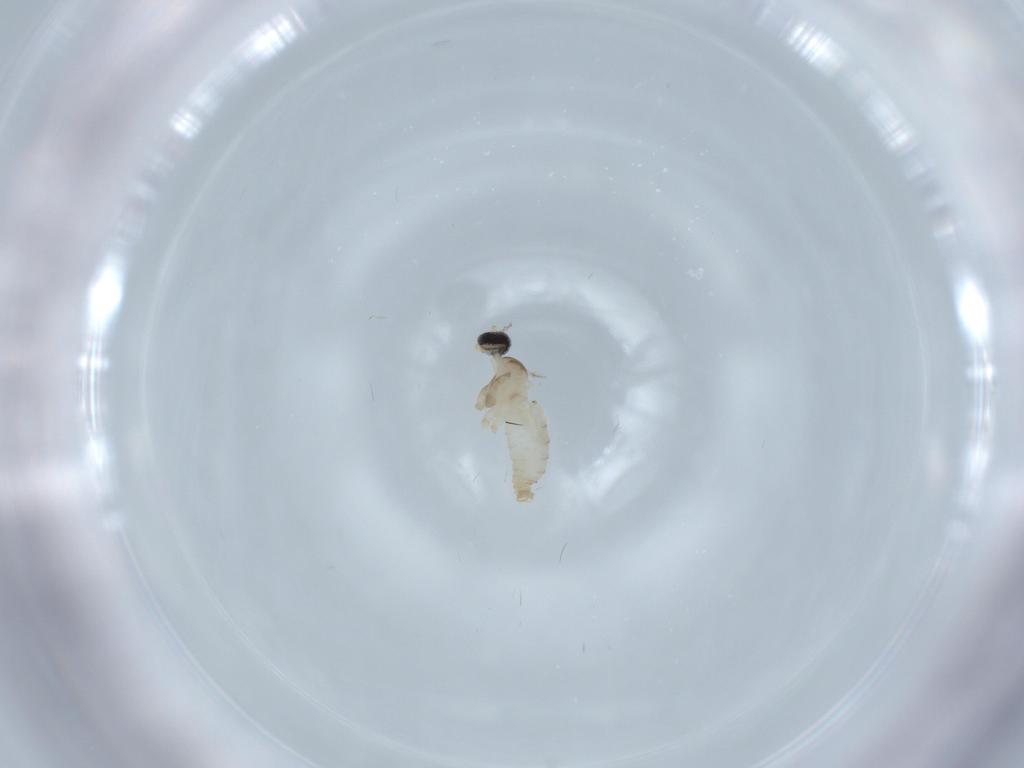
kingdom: Animalia
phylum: Arthropoda
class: Insecta
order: Diptera
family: Cecidomyiidae
